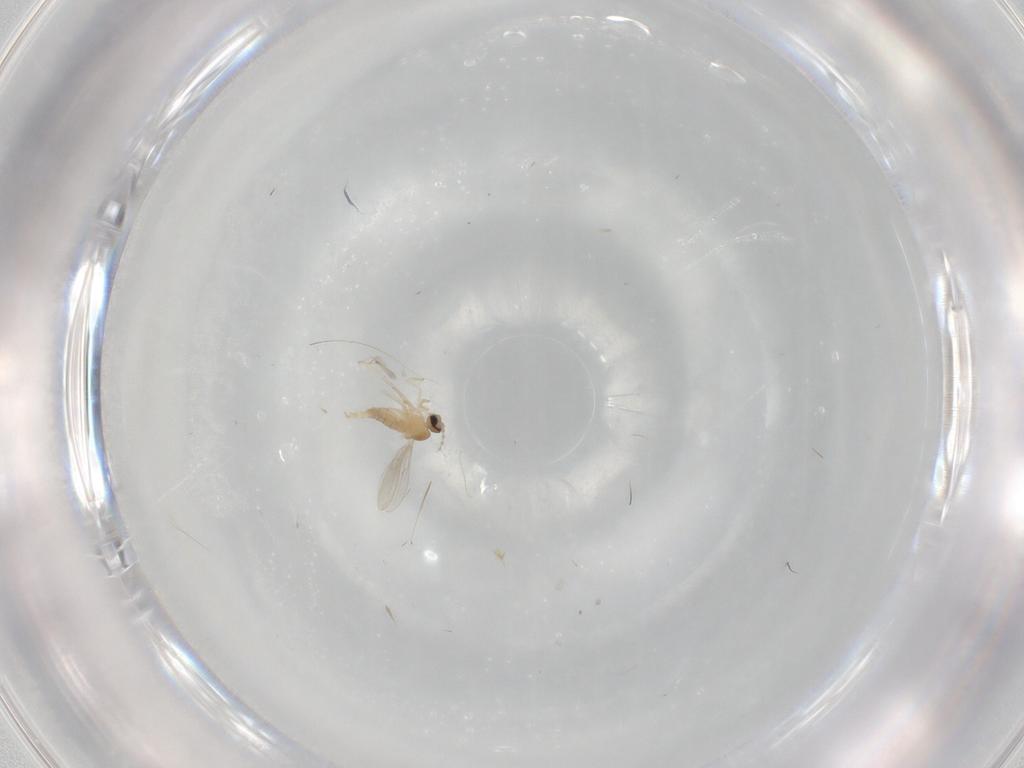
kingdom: Animalia
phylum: Arthropoda
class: Insecta
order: Diptera
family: Cecidomyiidae
